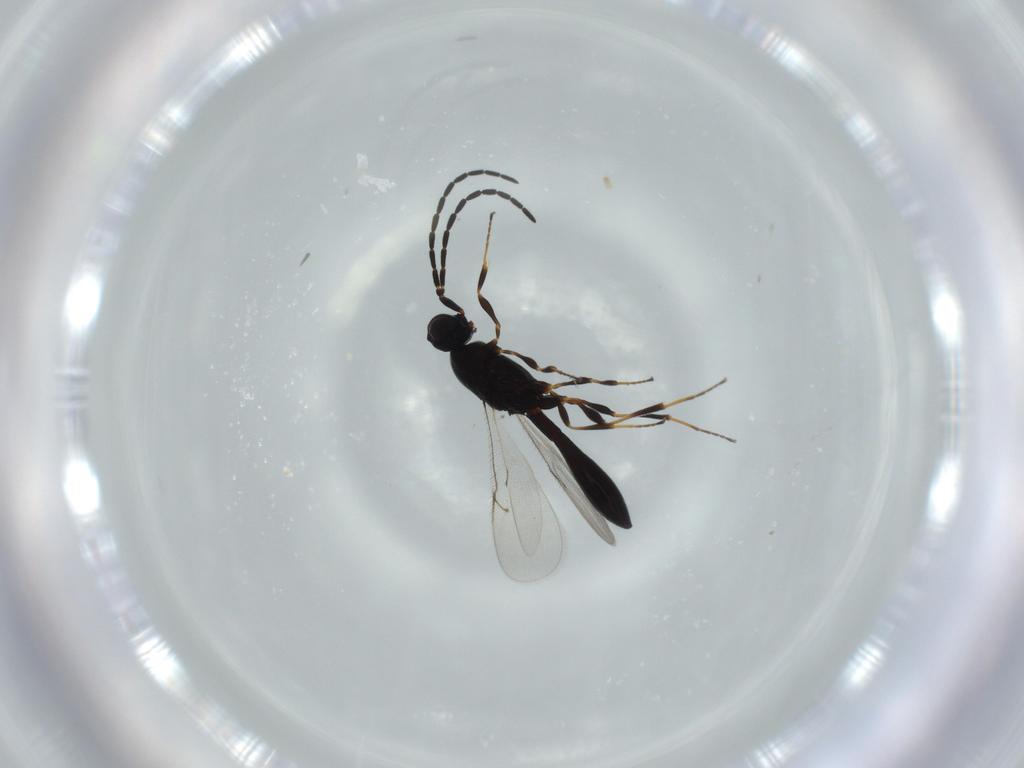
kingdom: Animalia
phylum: Arthropoda
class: Insecta
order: Hymenoptera
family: Scelionidae
